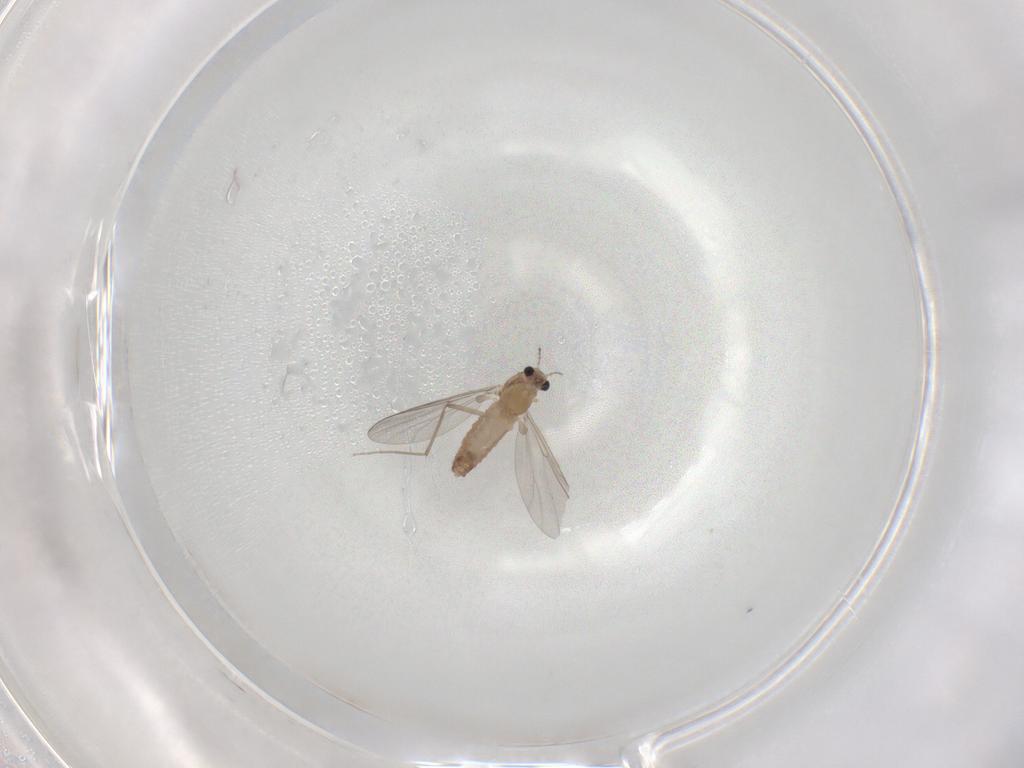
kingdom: Animalia
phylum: Arthropoda
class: Insecta
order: Diptera
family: Chironomidae
